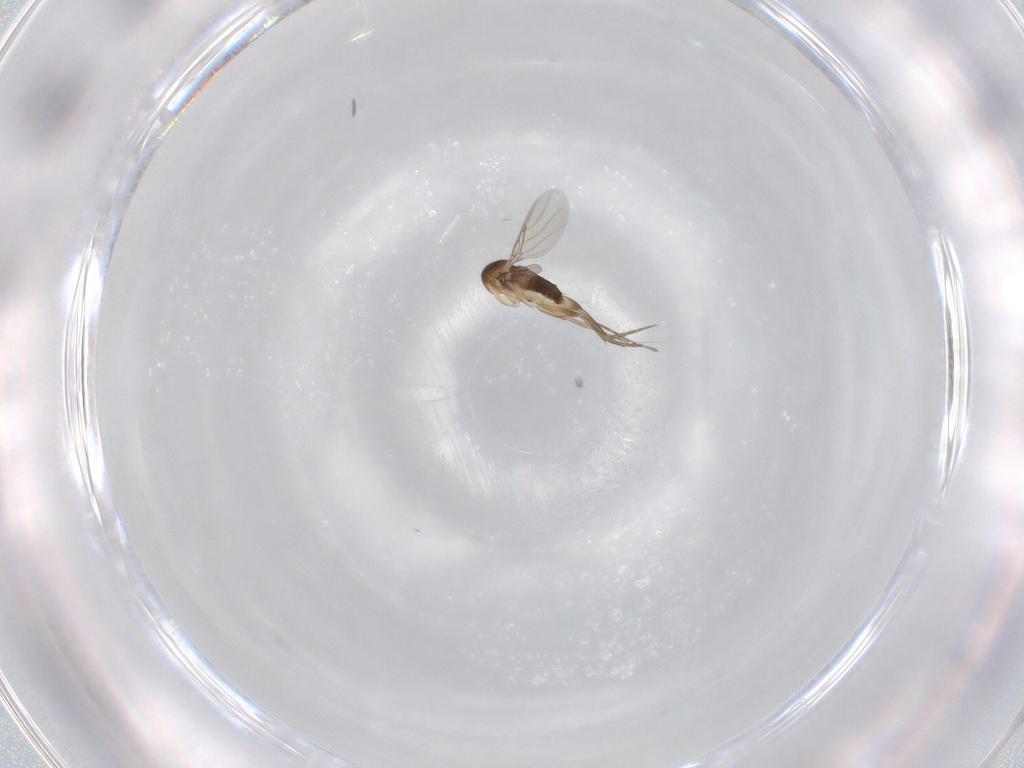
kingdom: Animalia
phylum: Arthropoda
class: Insecta
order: Diptera
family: Phoridae
